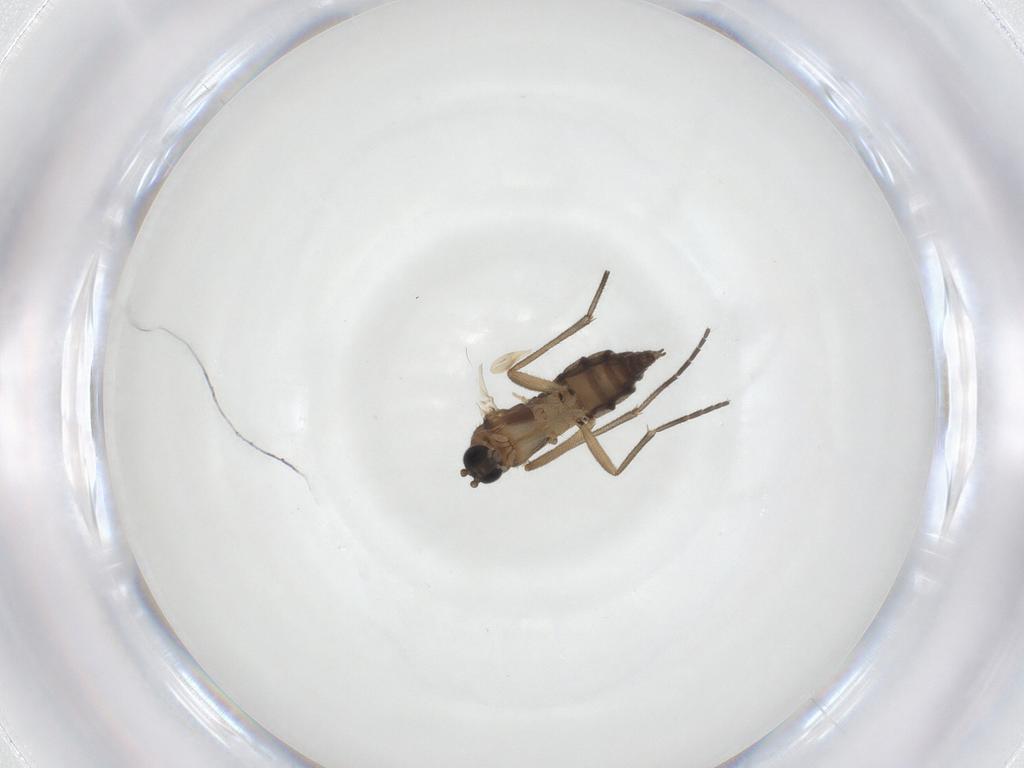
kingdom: Animalia
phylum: Arthropoda
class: Insecta
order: Diptera
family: Sciaridae
